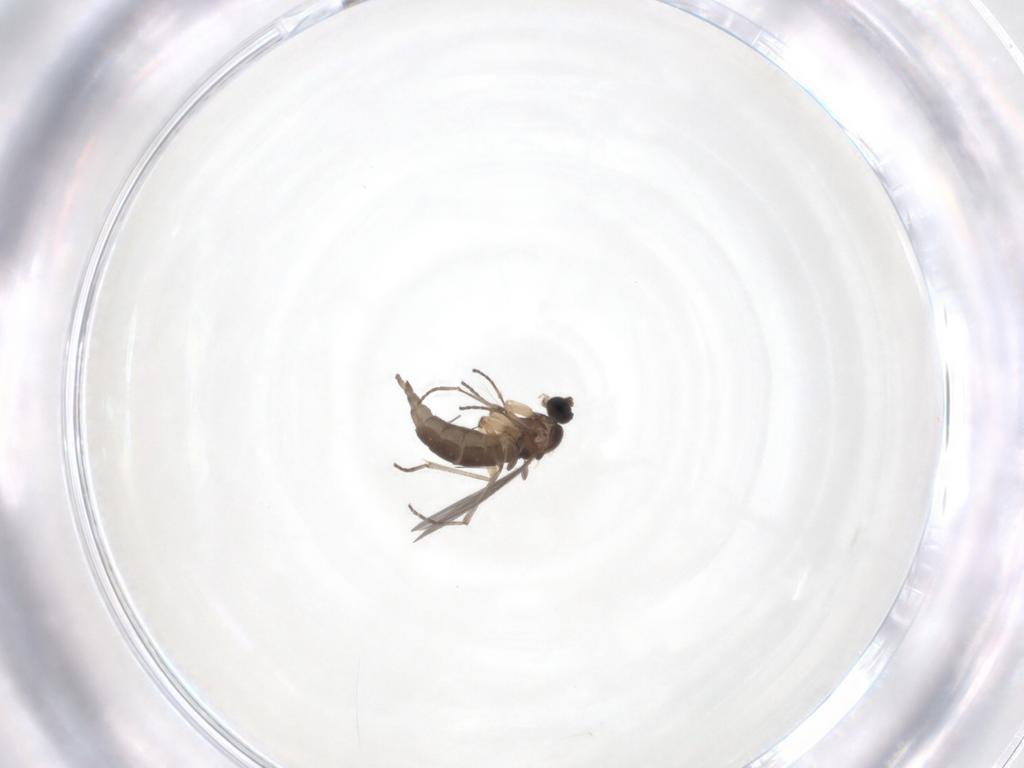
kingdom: Animalia
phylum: Arthropoda
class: Insecta
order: Diptera
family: Sciaridae
